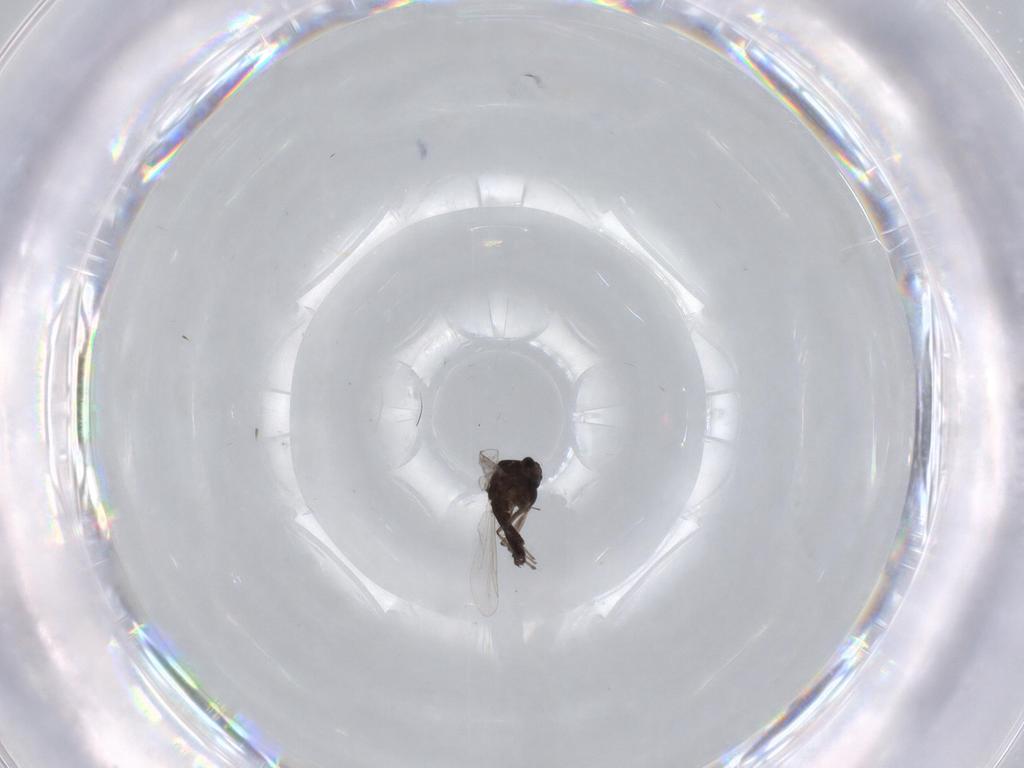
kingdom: Animalia
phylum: Arthropoda
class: Insecta
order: Diptera
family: Chironomidae
